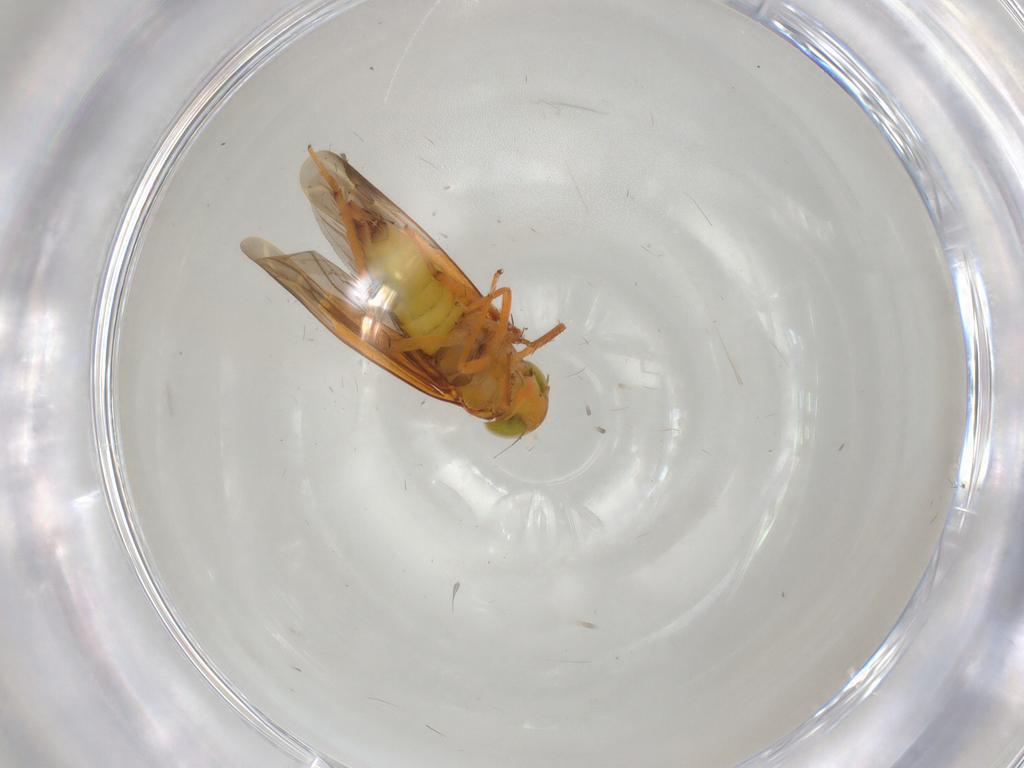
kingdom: Animalia
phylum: Arthropoda
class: Insecta
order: Hemiptera
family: Cicadellidae
